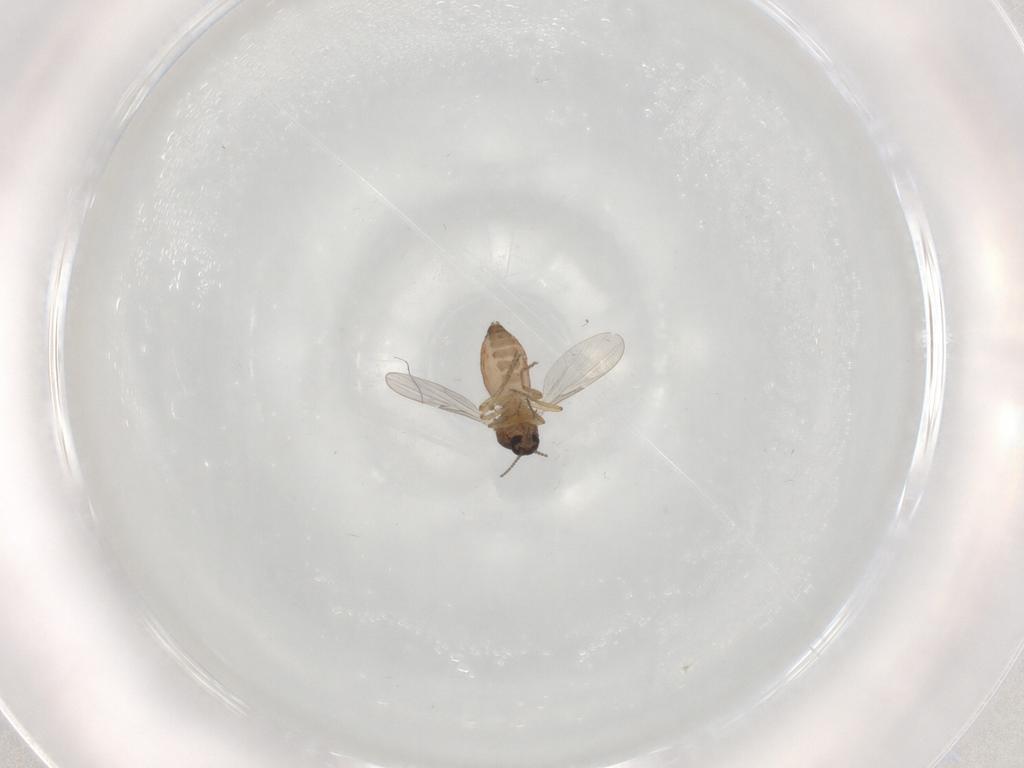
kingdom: Animalia
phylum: Arthropoda
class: Insecta
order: Diptera
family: Ceratopogonidae
